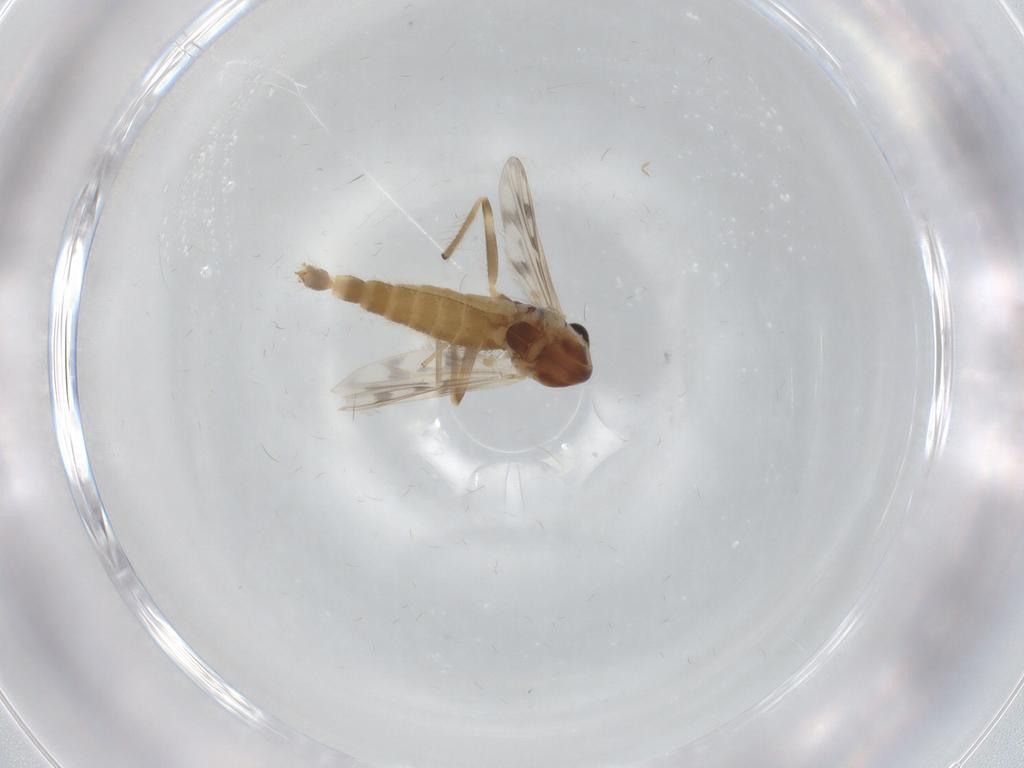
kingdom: Animalia
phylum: Arthropoda
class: Insecta
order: Diptera
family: Chironomidae
